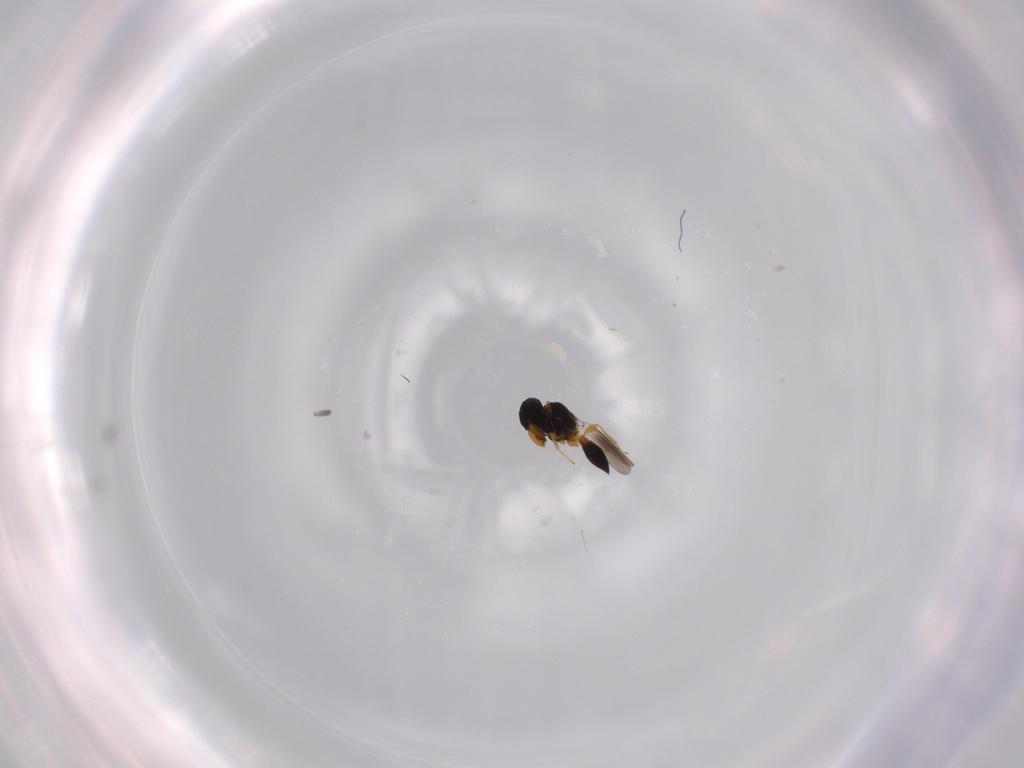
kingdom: Animalia
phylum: Arthropoda
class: Insecta
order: Hymenoptera
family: Platygastridae
